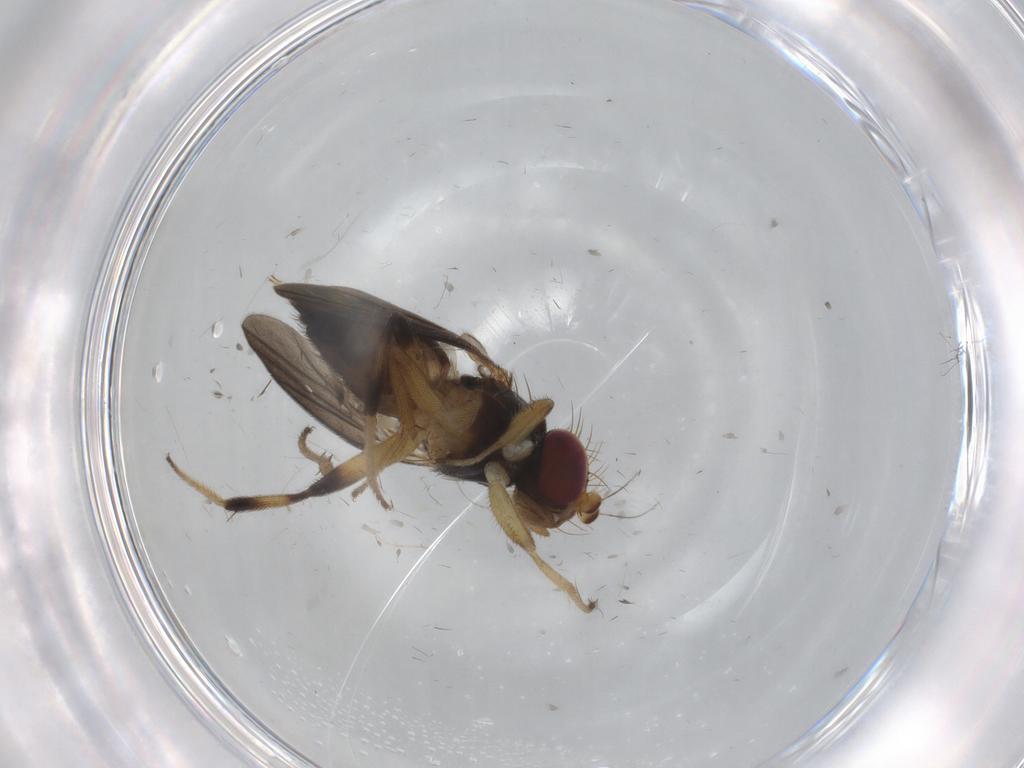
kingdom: Animalia
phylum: Arthropoda
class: Insecta
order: Diptera
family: Clusiidae
